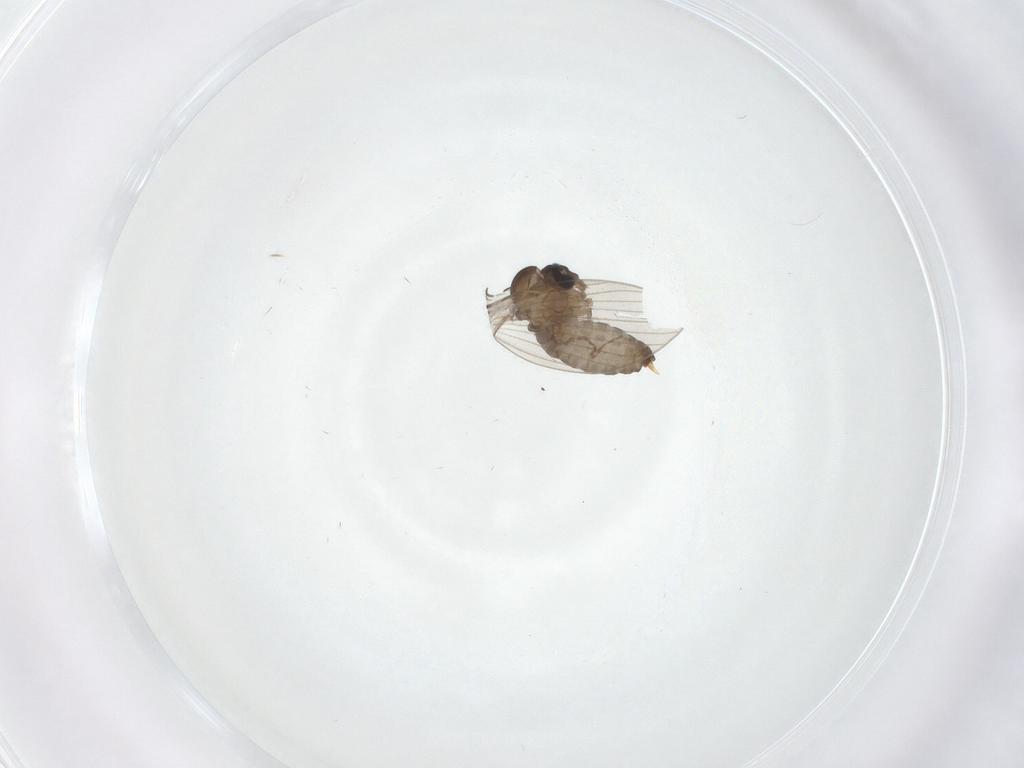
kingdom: Animalia
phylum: Arthropoda
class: Insecta
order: Diptera
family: Psychodidae
